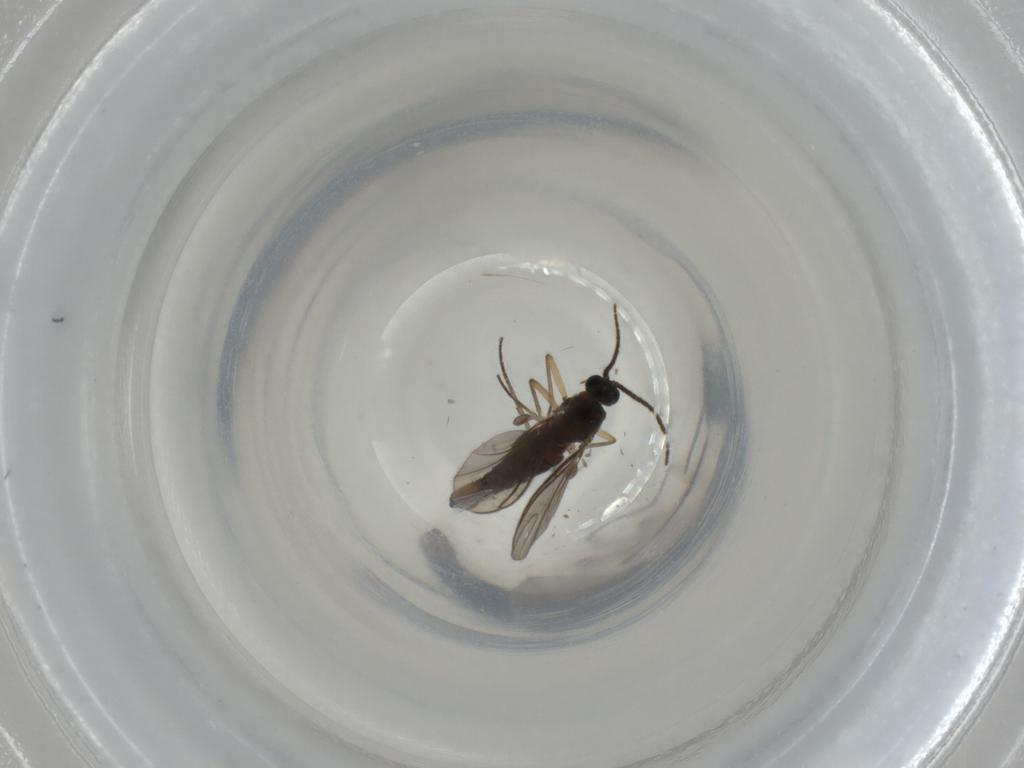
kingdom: Animalia
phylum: Arthropoda
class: Insecta
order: Diptera
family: Sciaridae
